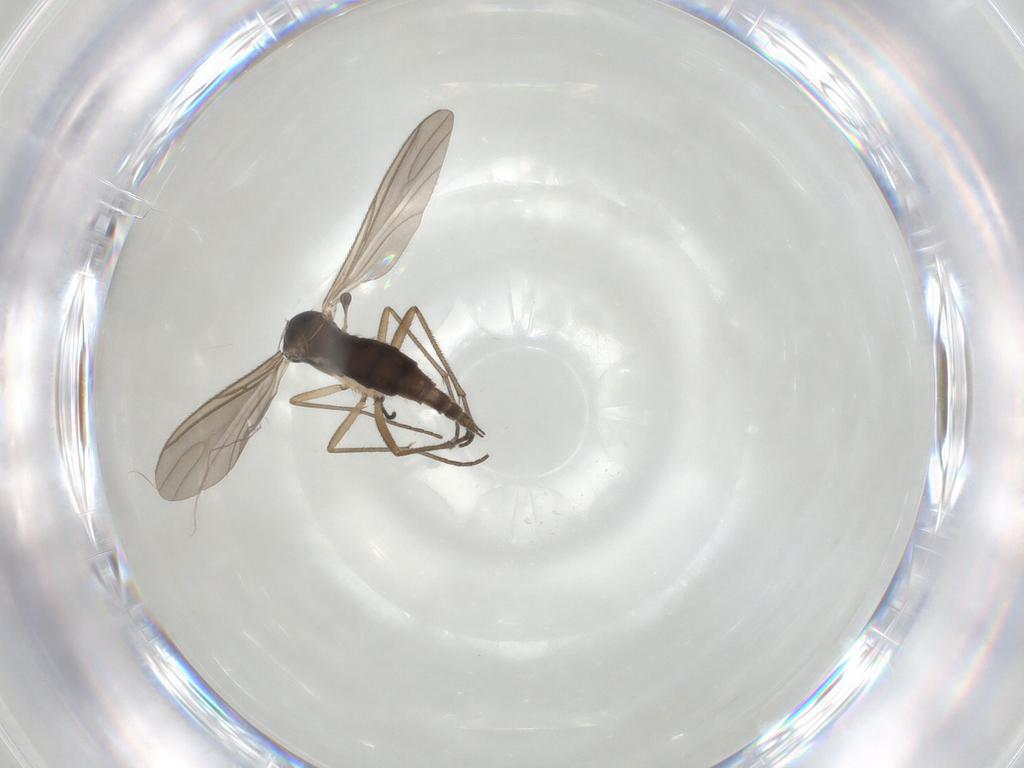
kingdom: Animalia
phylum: Arthropoda
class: Insecta
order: Diptera
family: Sciaridae
